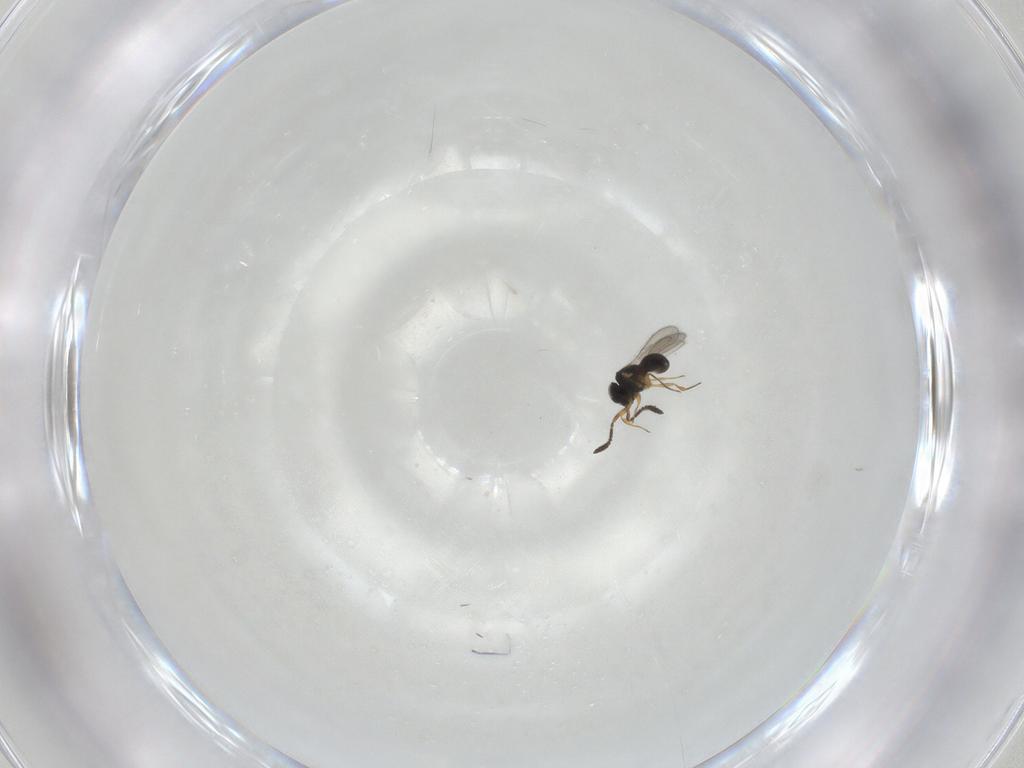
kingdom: Animalia
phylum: Arthropoda
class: Insecta
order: Hymenoptera
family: Scelionidae
